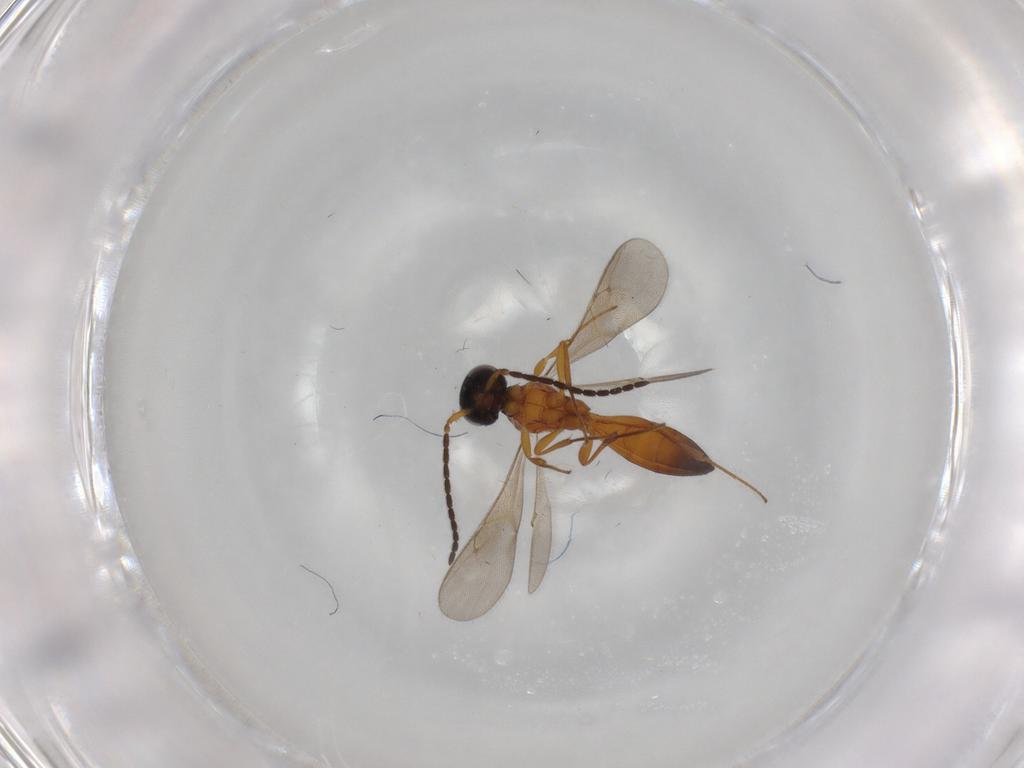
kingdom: Animalia
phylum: Arthropoda
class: Insecta
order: Hymenoptera
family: Scelionidae
